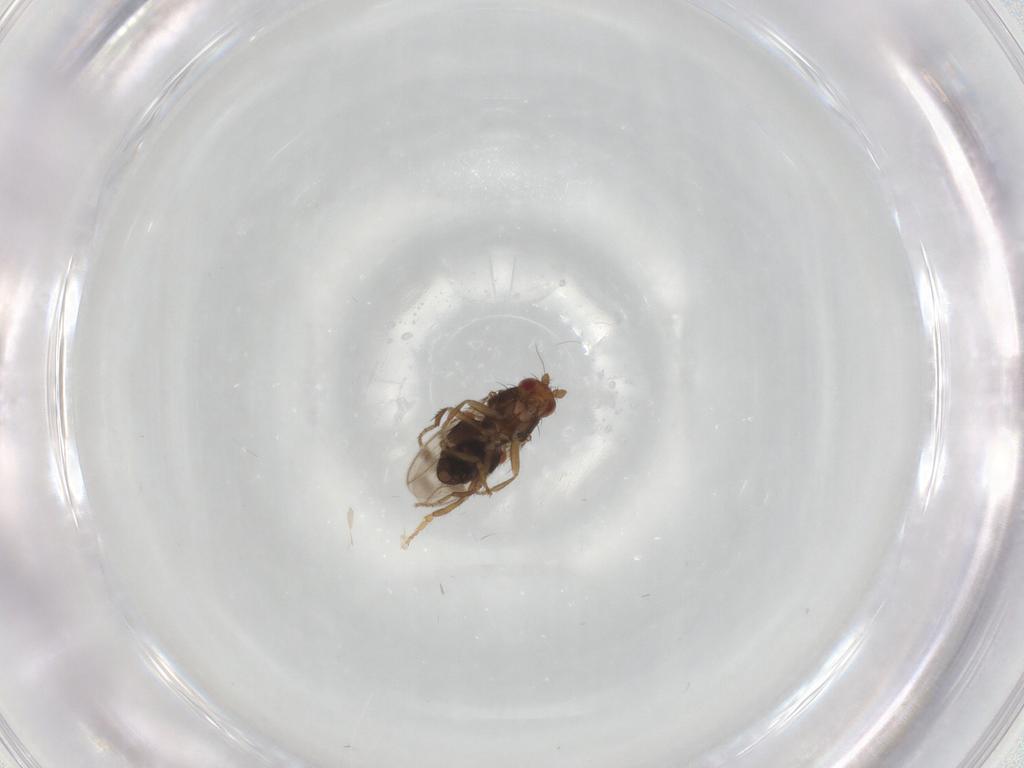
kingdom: Animalia
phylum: Arthropoda
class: Insecta
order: Diptera
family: Sphaeroceridae
